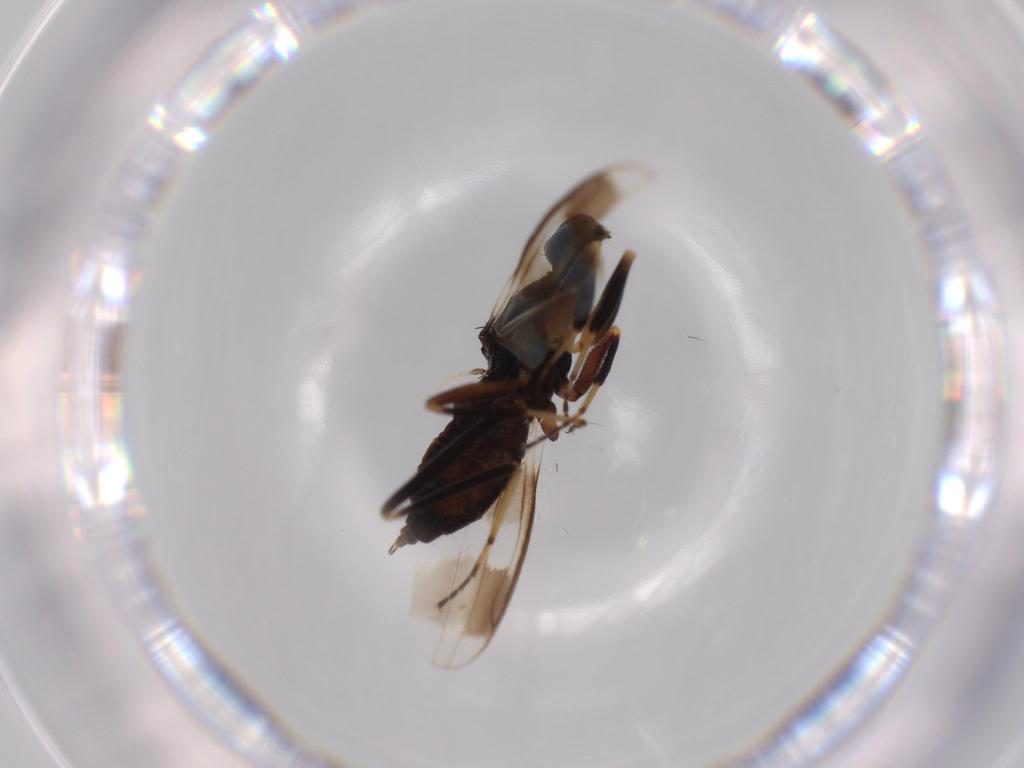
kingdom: Animalia
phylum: Arthropoda
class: Insecta
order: Diptera
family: Hybotidae
